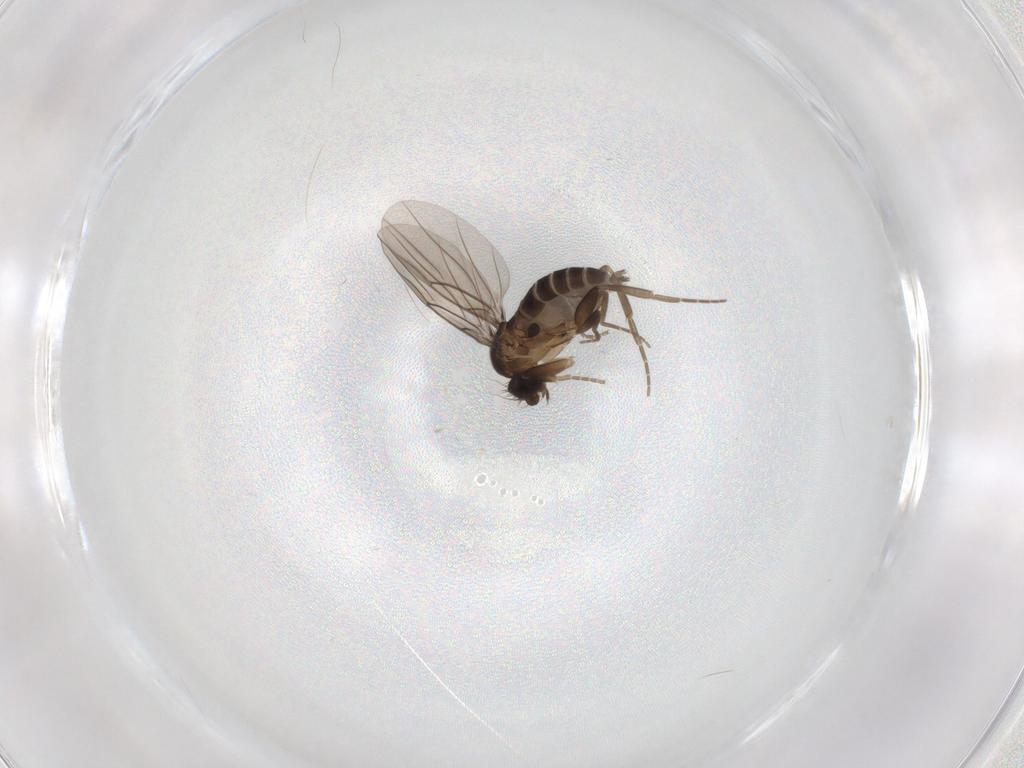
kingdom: Animalia
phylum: Arthropoda
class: Insecta
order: Diptera
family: Phoridae
